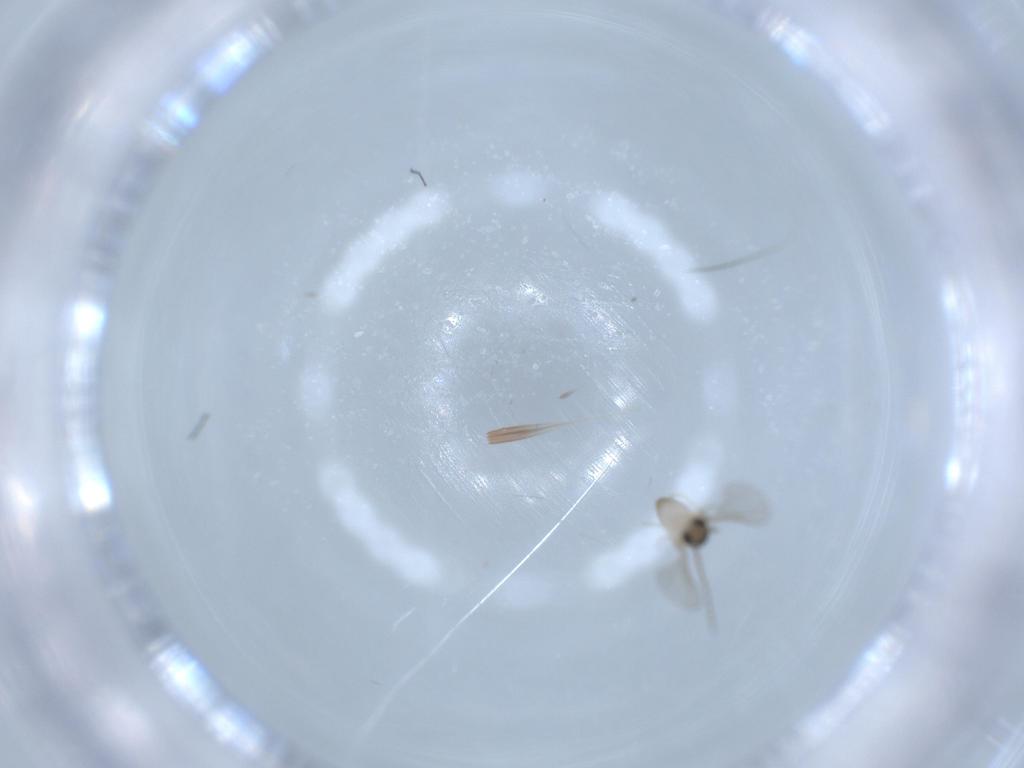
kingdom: Animalia
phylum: Arthropoda
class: Insecta
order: Diptera
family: Cecidomyiidae
